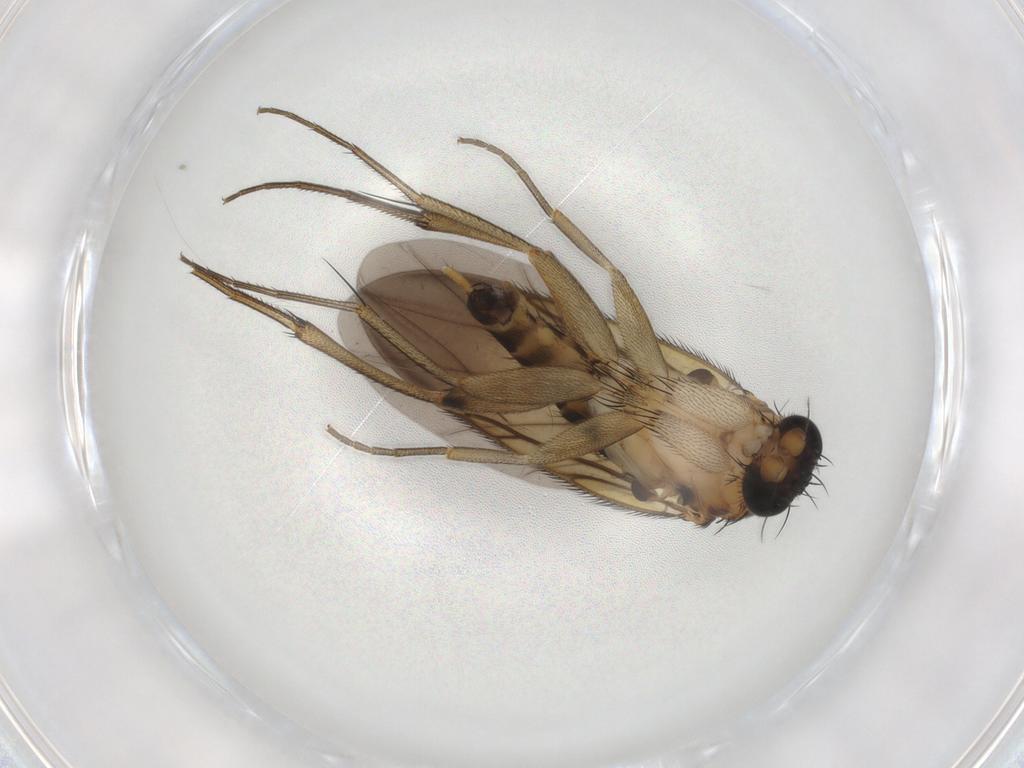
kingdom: Animalia
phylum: Arthropoda
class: Insecta
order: Diptera
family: Phoridae
